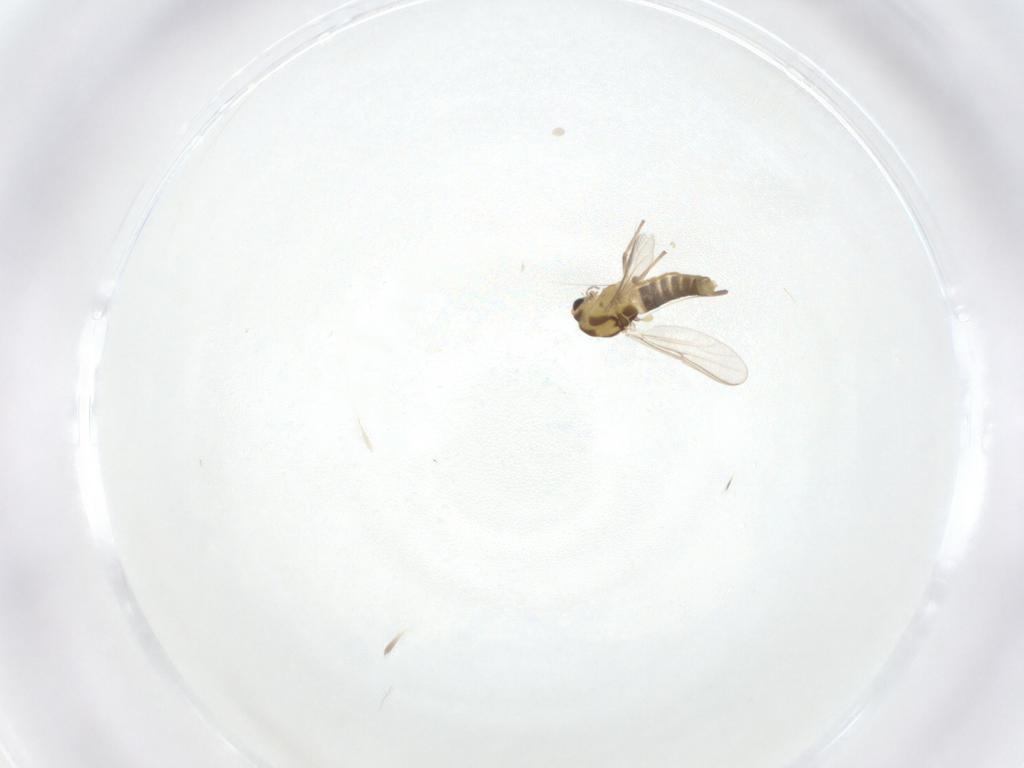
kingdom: Animalia
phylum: Arthropoda
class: Insecta
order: Diptera
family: Chironomidae
